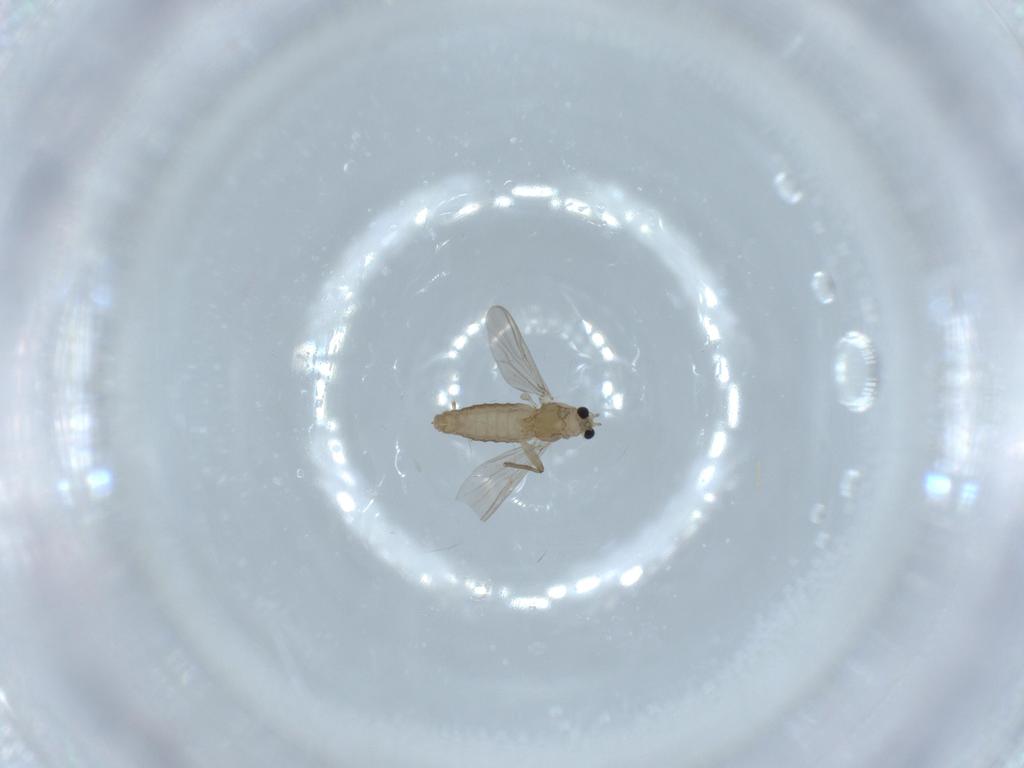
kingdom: Animalia
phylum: Arthropoda
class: Insecta
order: Diptera
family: Chironomidae
